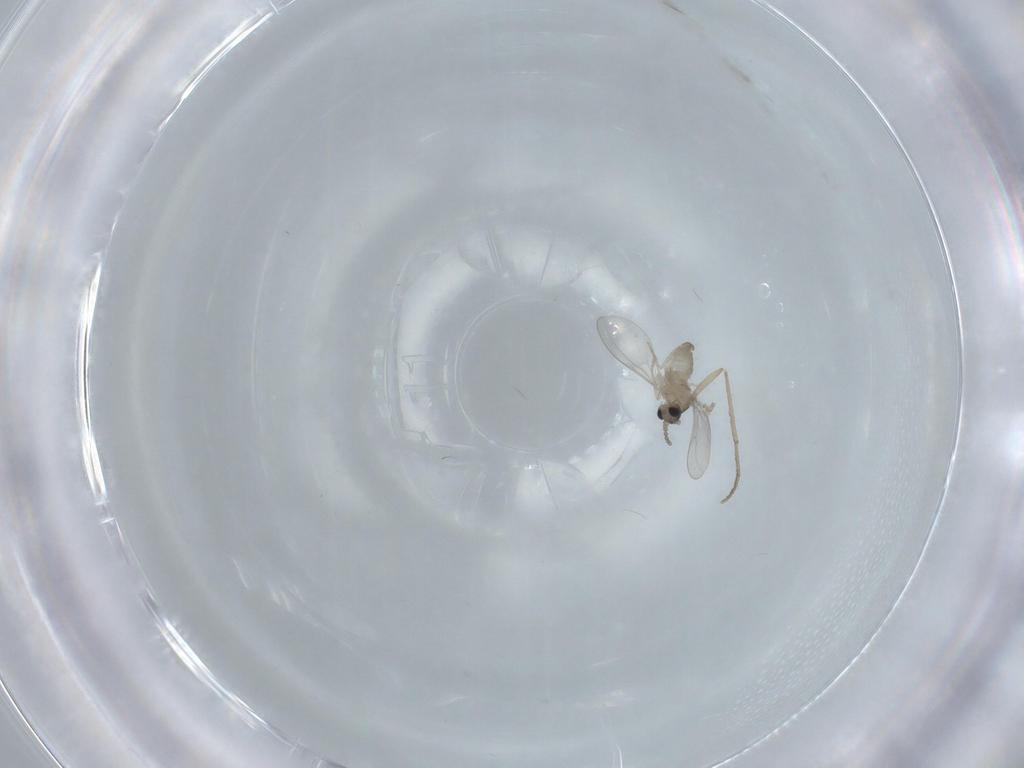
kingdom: Animalia
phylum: Arthropoda
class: Insecta
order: Diptera
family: Cecidomyiidae
